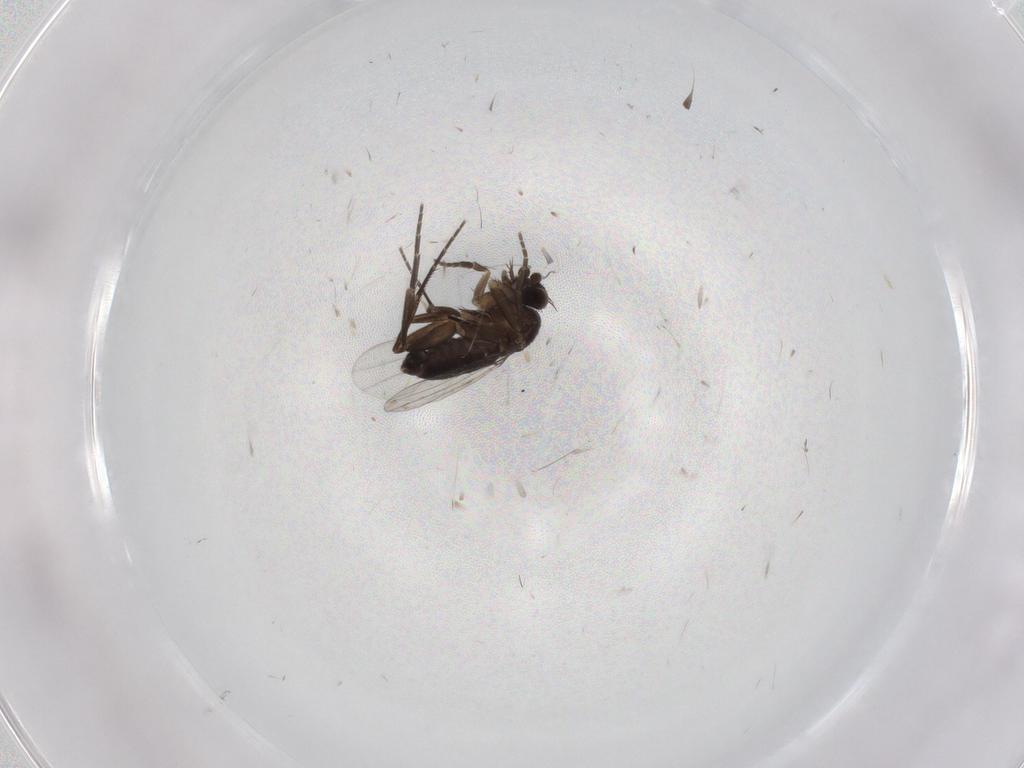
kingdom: Animalia
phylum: Arthropoda
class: Insecta
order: Diptera
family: Phoridae
